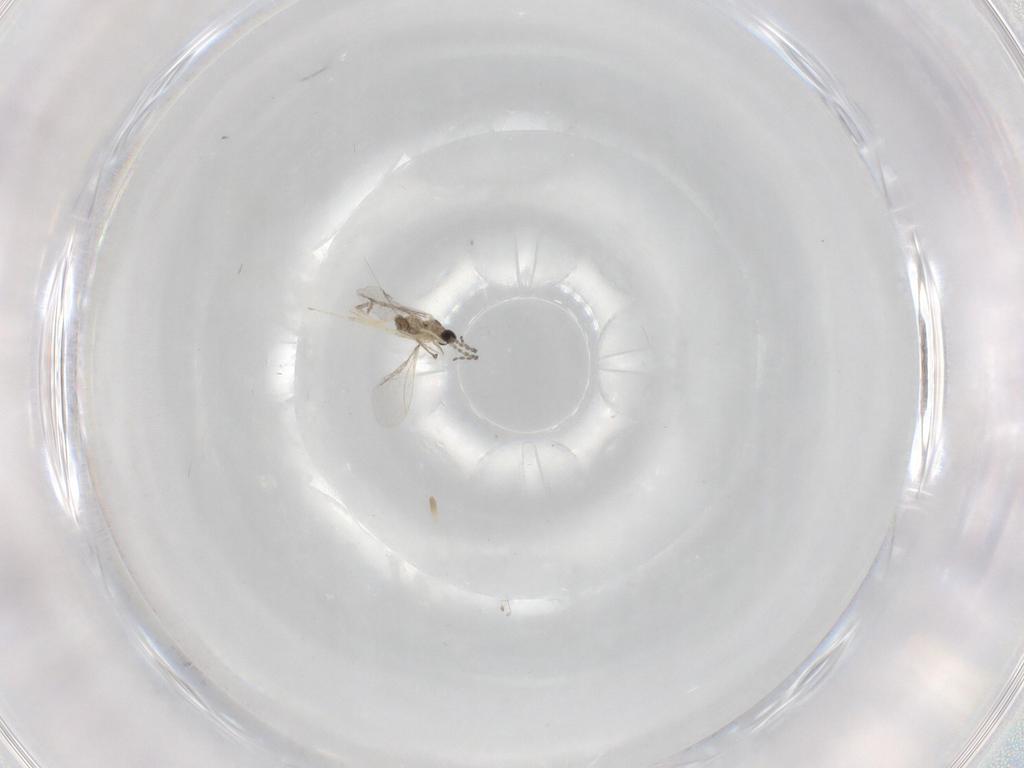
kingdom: Animalia
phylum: Arthropoda
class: Insecta
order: Diptera
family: Cecidomyiidae
